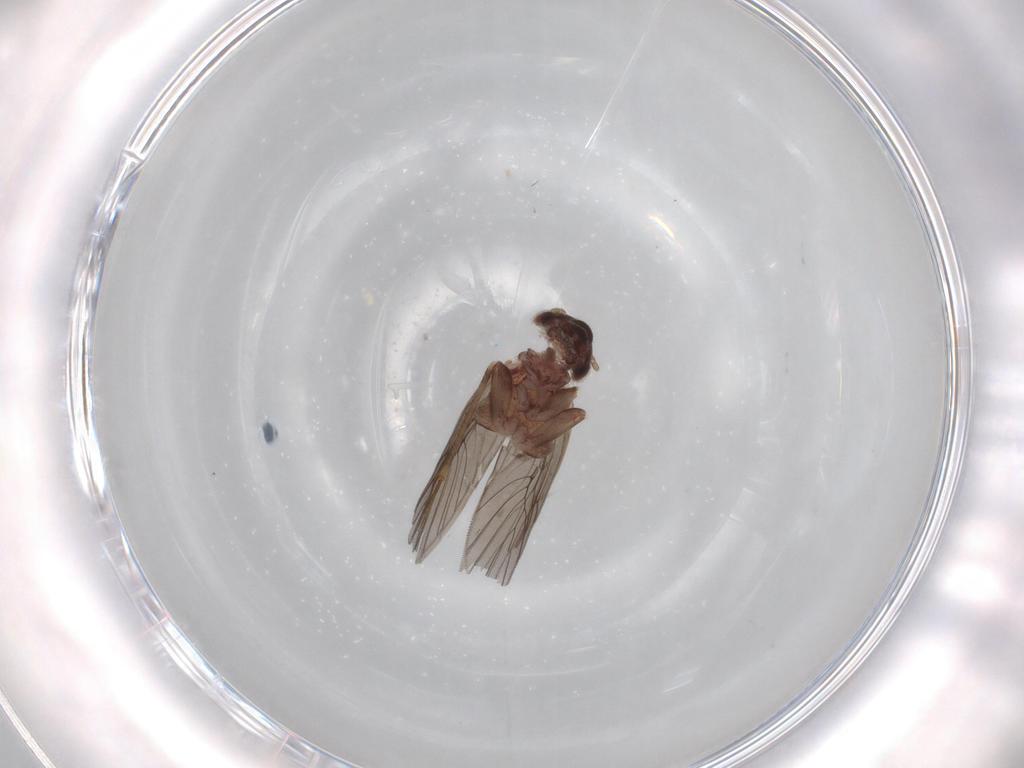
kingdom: Animalia
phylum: Arthropoda
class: Insecta
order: Psocodea
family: Lepidopsocidae
